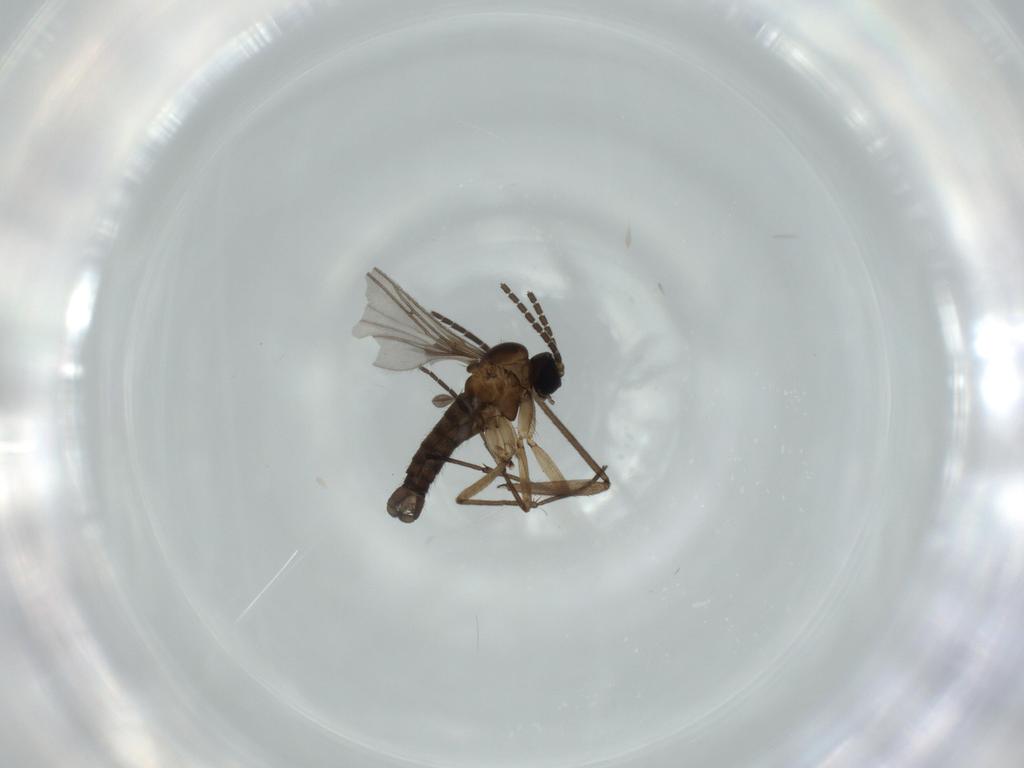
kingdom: Animalia
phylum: Arthropoda
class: Insecta
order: Diptera
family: Sciaridae
